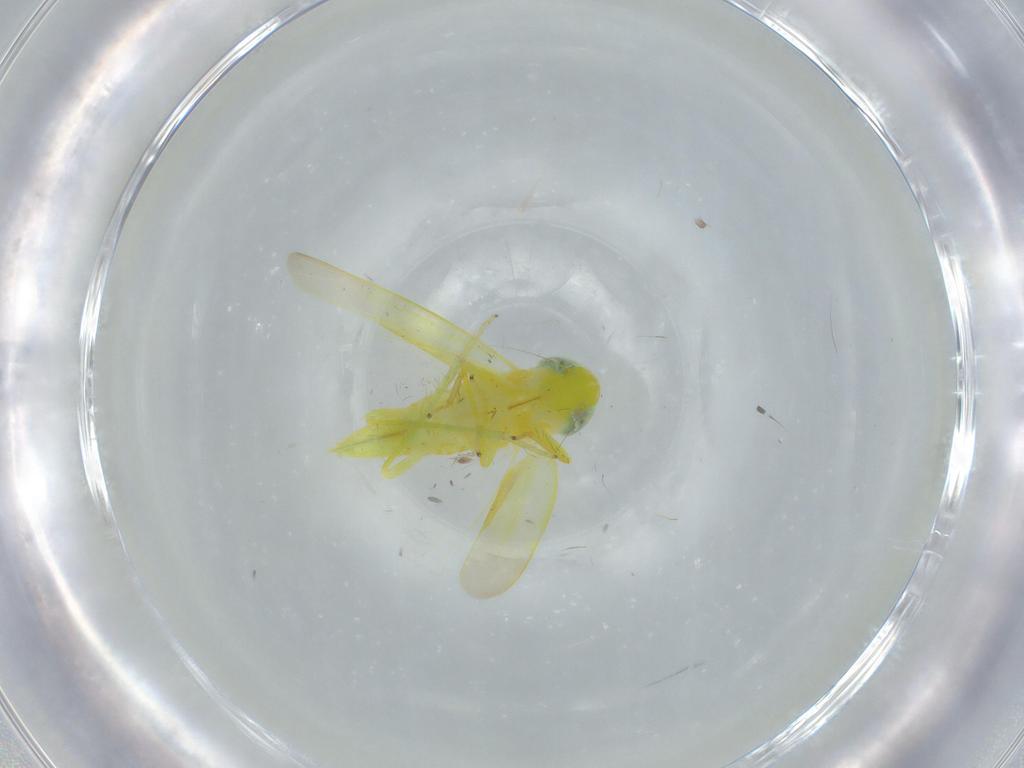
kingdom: Animalia
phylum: Arthropoda
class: Insecta
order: Hemiptera
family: Cicadellidae
